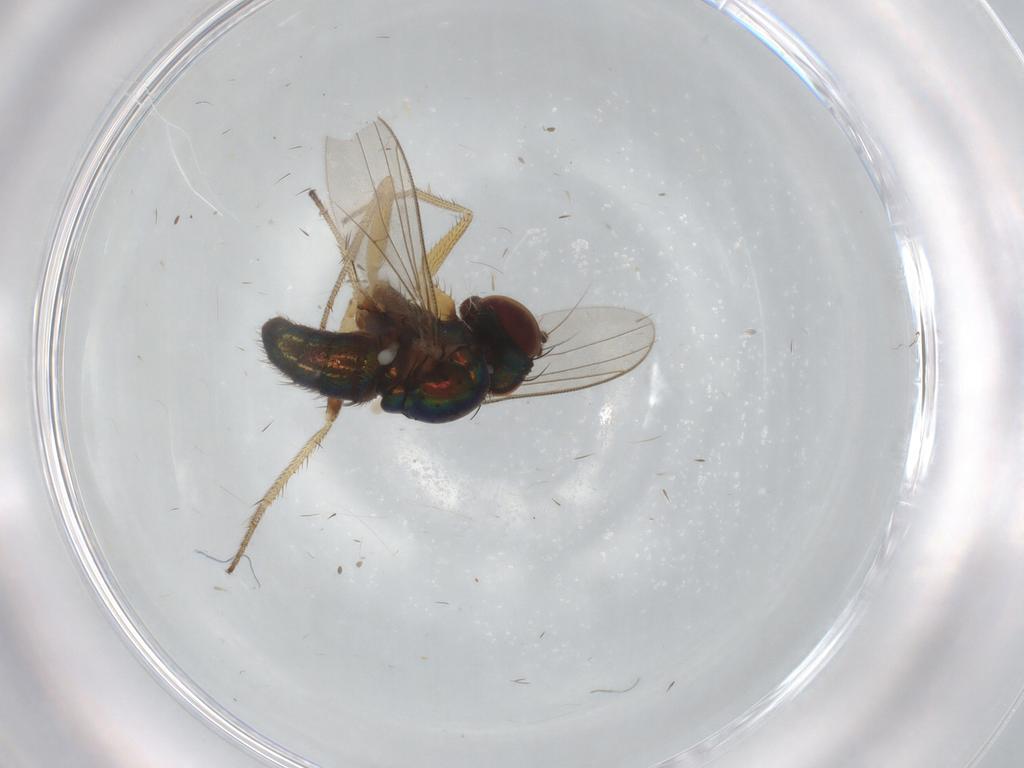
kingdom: Animalia
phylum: Arthropoda
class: Insecta
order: Diptera
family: Dolichopodidae
